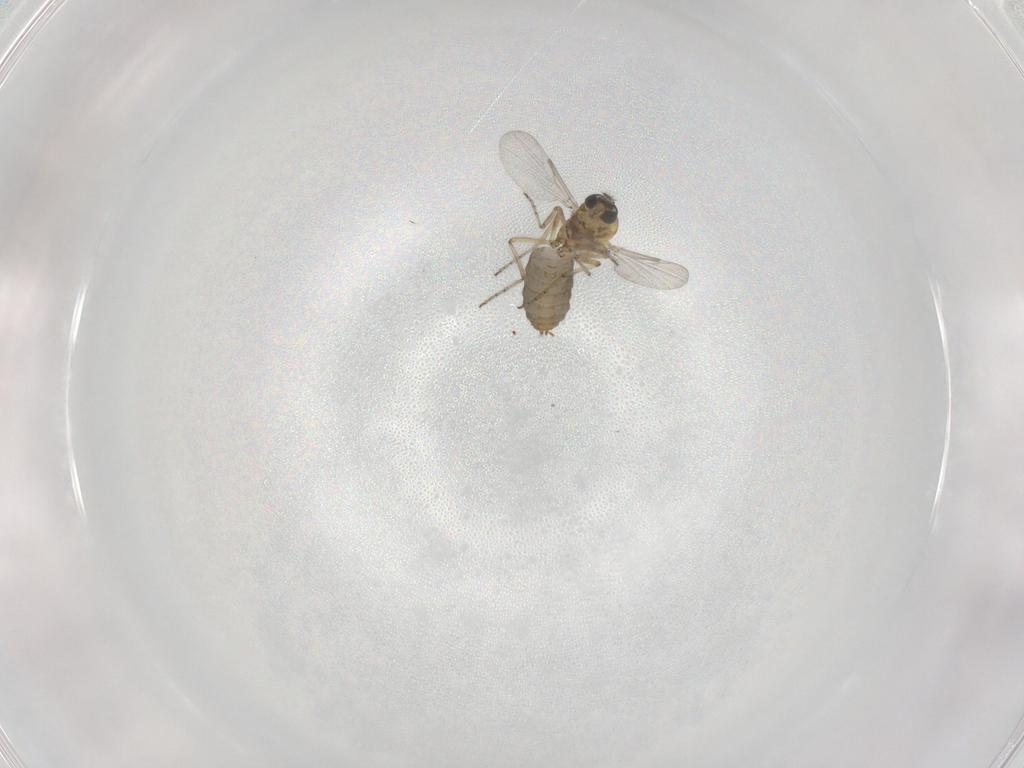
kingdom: Animalia
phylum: Arthropoda
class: Insecta
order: Diptera
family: Ceratopogonidae
